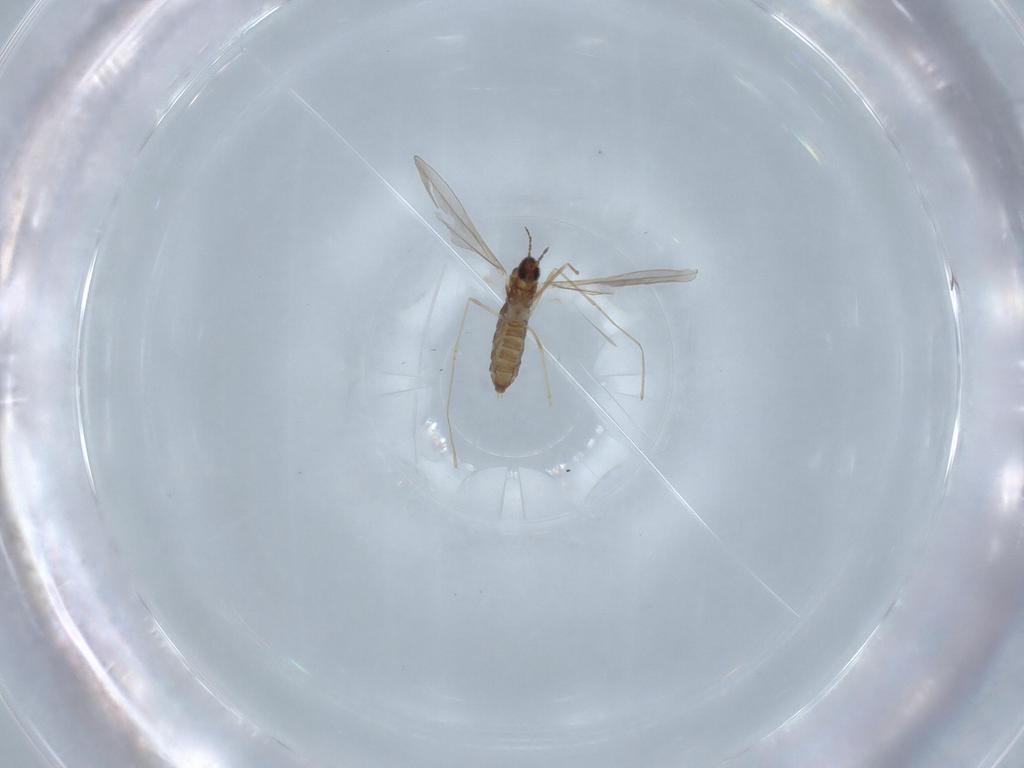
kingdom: Animalia
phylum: Arthropoda
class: Insecta
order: Diptera
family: Cecidomyiidae
